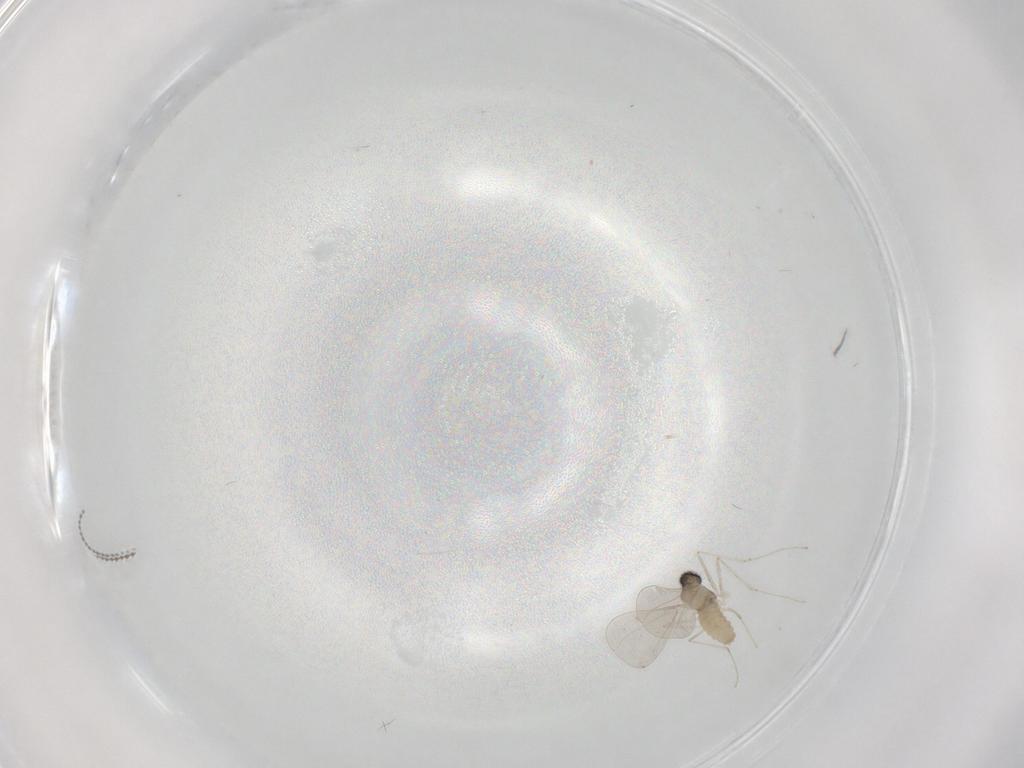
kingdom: Animalia
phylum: Arthropoda
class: Insecta
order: Diptera
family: Cecidomyiidae
